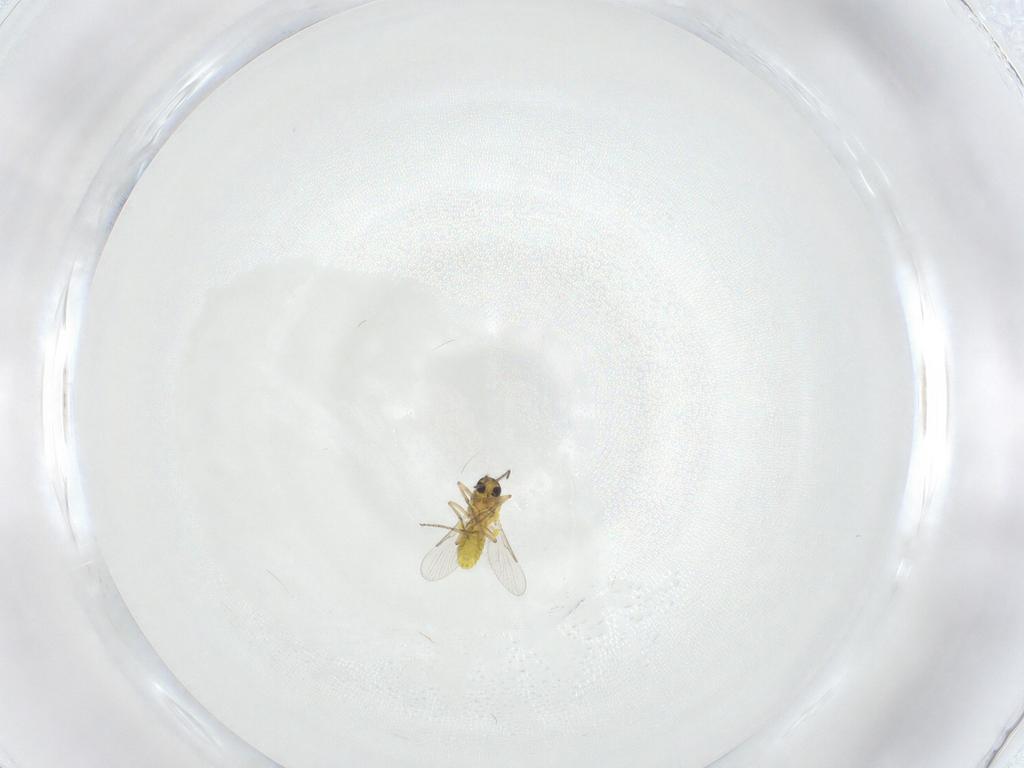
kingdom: Animalia
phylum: Arthropoda
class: Insecta
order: Diptera
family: Ceratopogonidae
